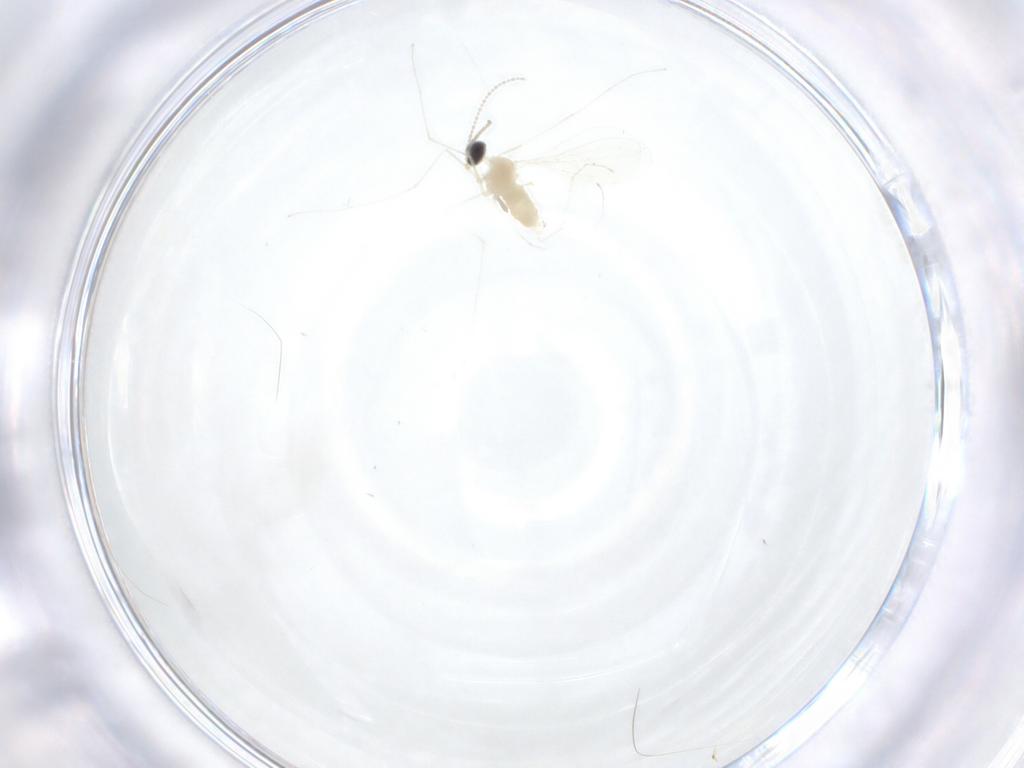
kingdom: Animalia
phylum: Arthropoda
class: Insecta
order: Diptera
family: Cecidomyiidae
